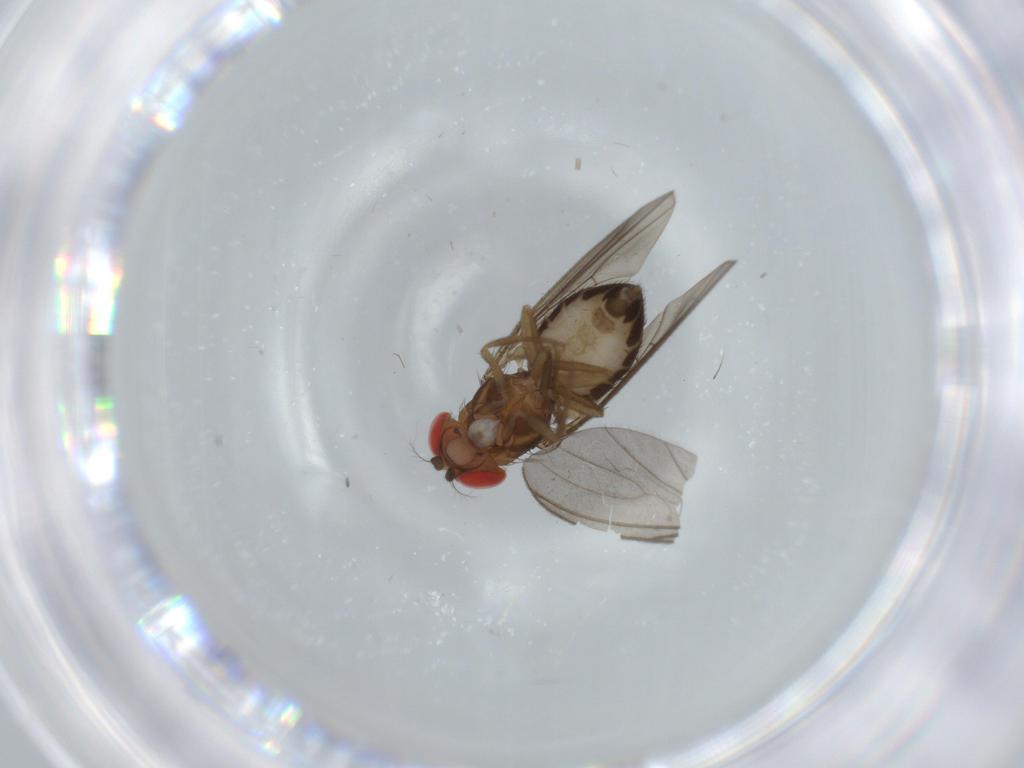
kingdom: Animalia
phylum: Arthropoda
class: Insecta
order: Diptera
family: Drosophilidae
